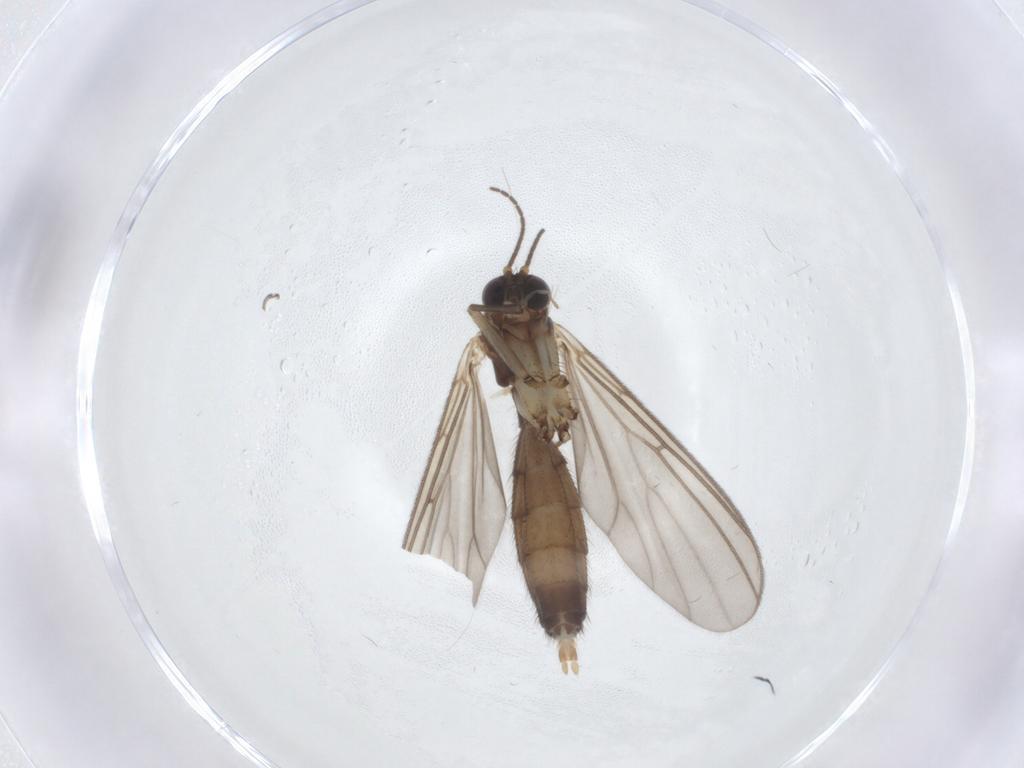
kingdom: Animalia
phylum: Arthropoda
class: Insecta
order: Diptera
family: Mycetophilidae
